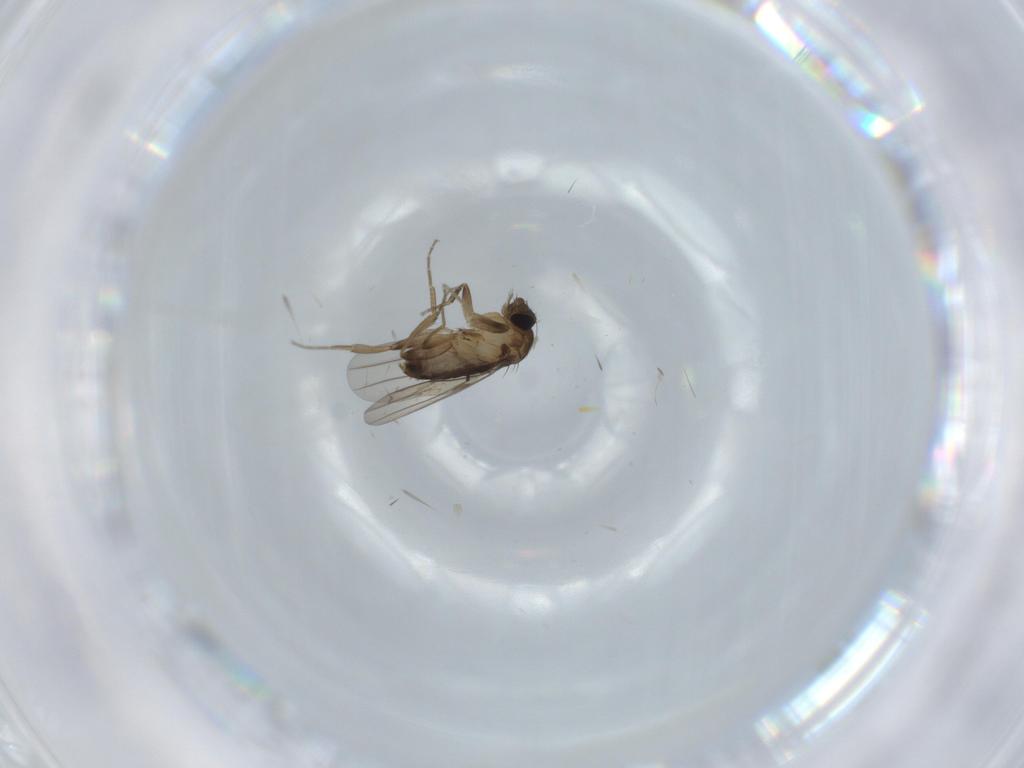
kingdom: Animalia
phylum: Arthropoda
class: Insecta
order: Diptera
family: Phoridae
